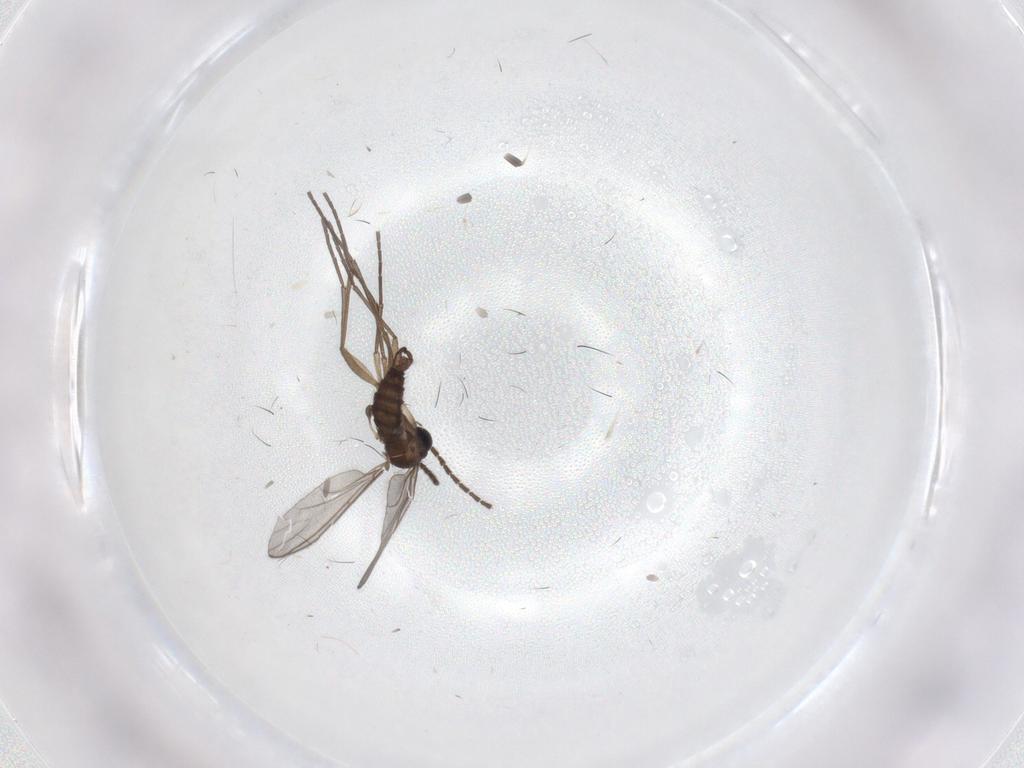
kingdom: Animalia
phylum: Arthropoda
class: Insecta
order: Diptera
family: Sciaridae
